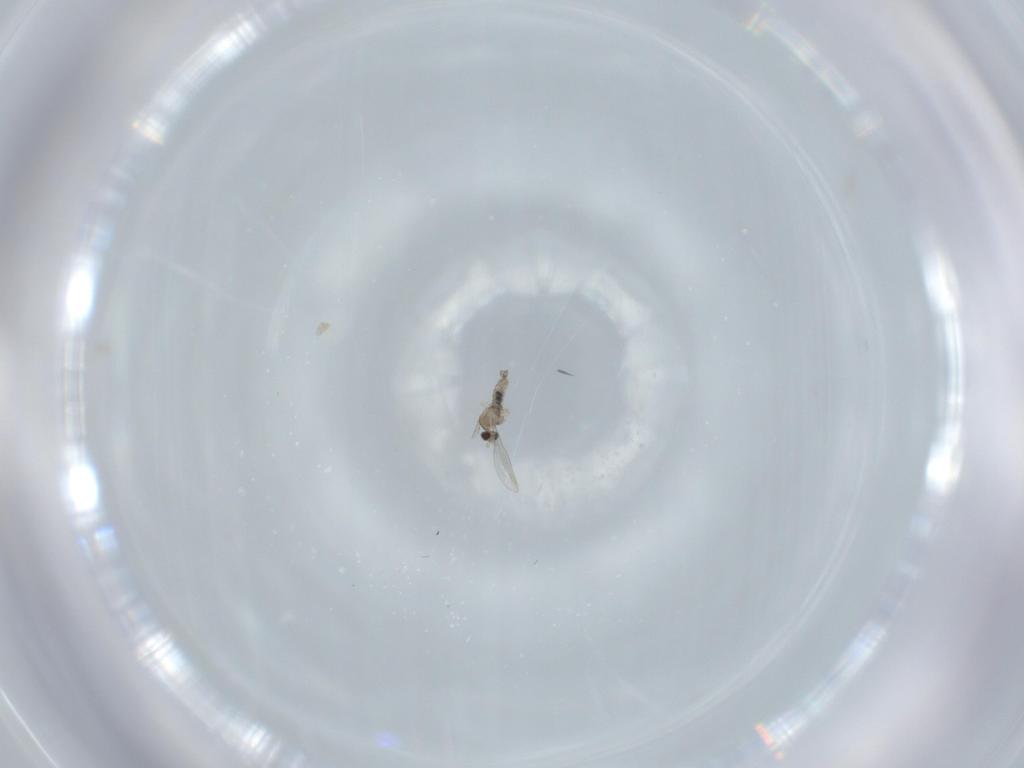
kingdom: Animalia
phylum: Arthropoda
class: Insecta
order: Diptera
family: Cecidomyiidae
